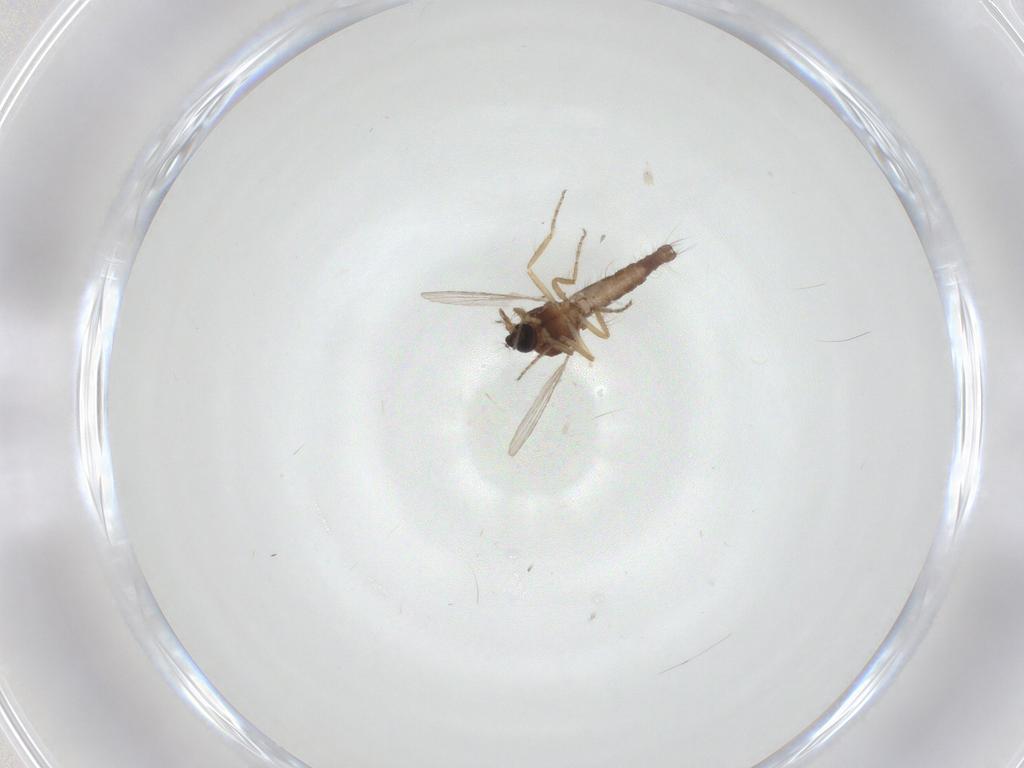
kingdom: Animalia
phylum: Arthropoda
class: Insecta
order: Diptera
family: Ceratopogonidae
